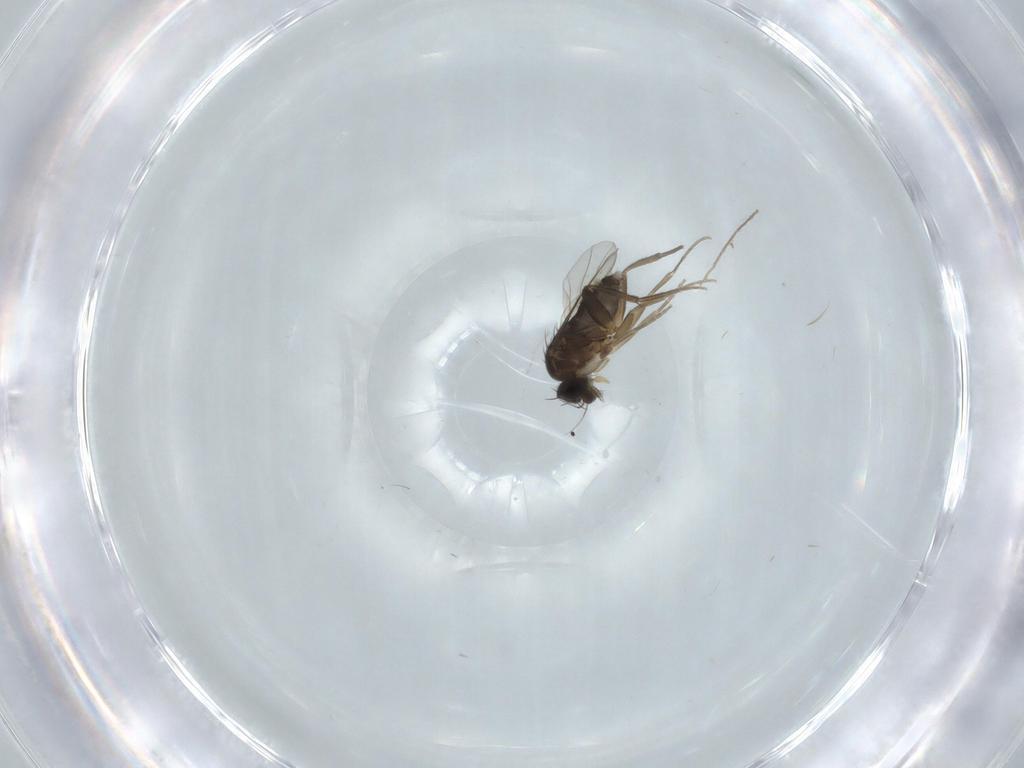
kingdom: Animalia
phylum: Arthropoda
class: Insecta
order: Diptera
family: Phoridae
